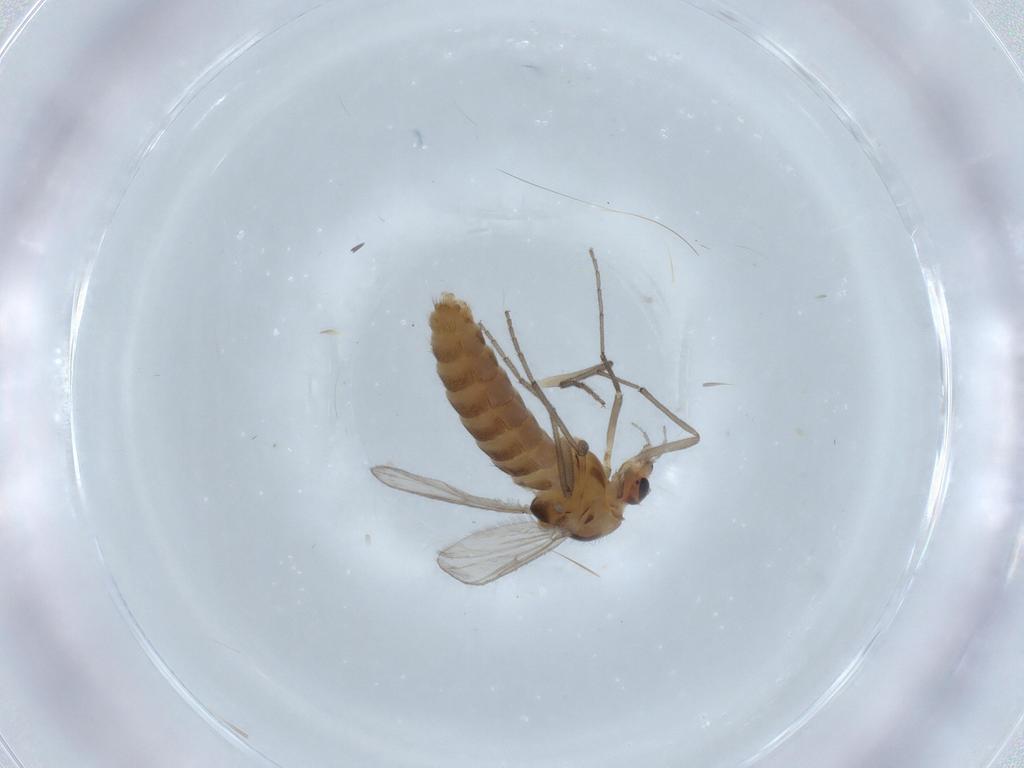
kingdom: Animalia
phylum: Arthropoda
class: Insecta
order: Diptera
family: Chironomidae
